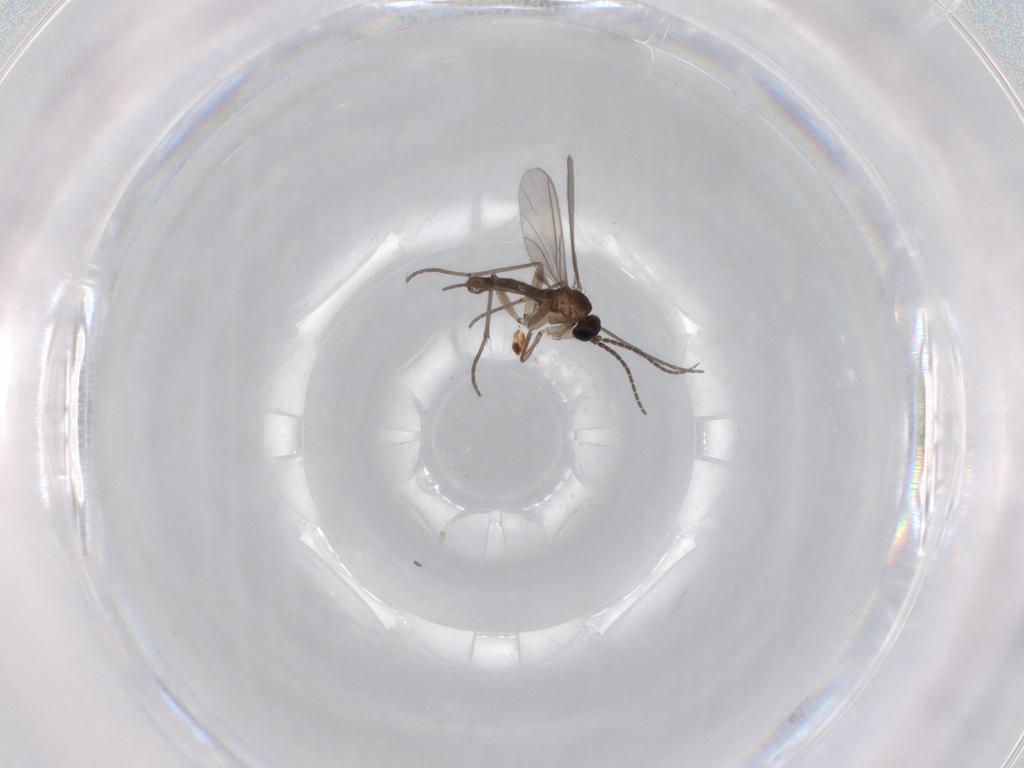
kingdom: Animalia
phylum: Arthropoda
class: Insecta
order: Diptera
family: Sciaridae
